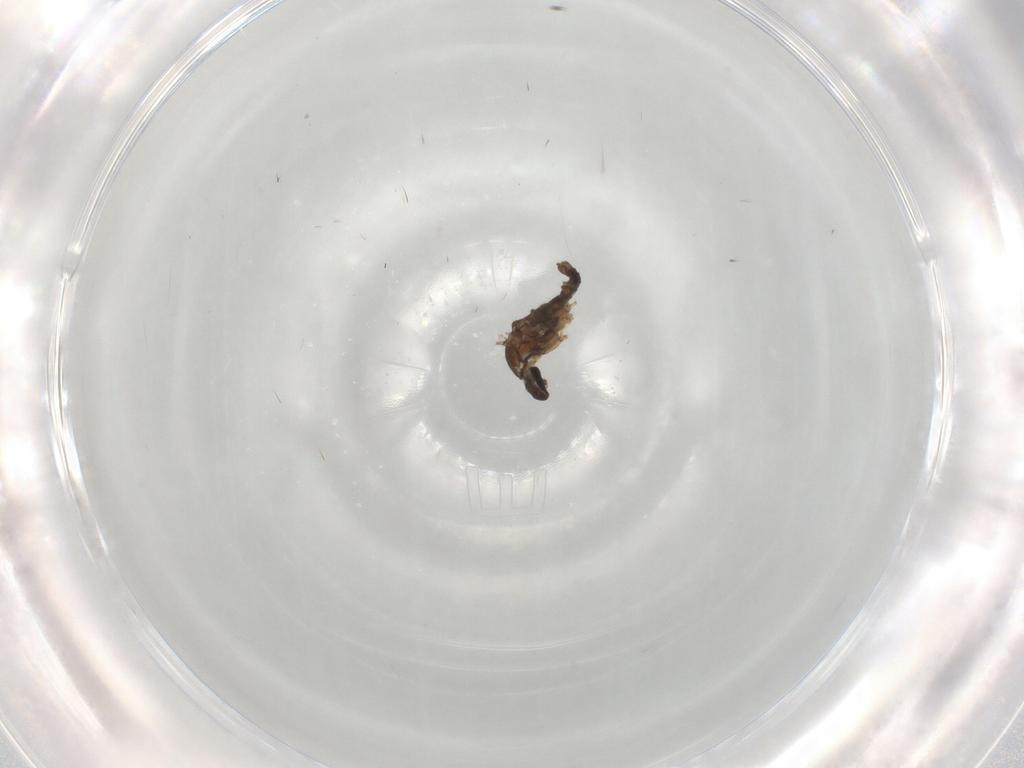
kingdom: Animalia
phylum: Arthropoda
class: Insecta
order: Diptera
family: Cecidomyiidae
